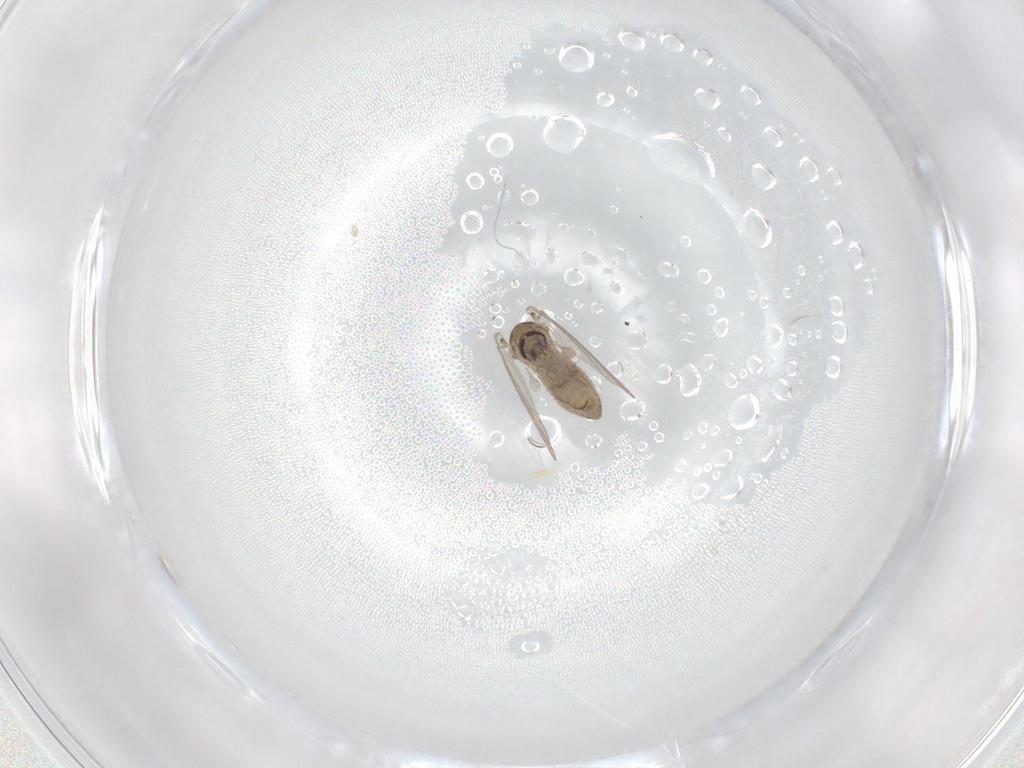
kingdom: Animalia
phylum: Arthropoda
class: Insecta
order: Diptera
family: Psychodidae
